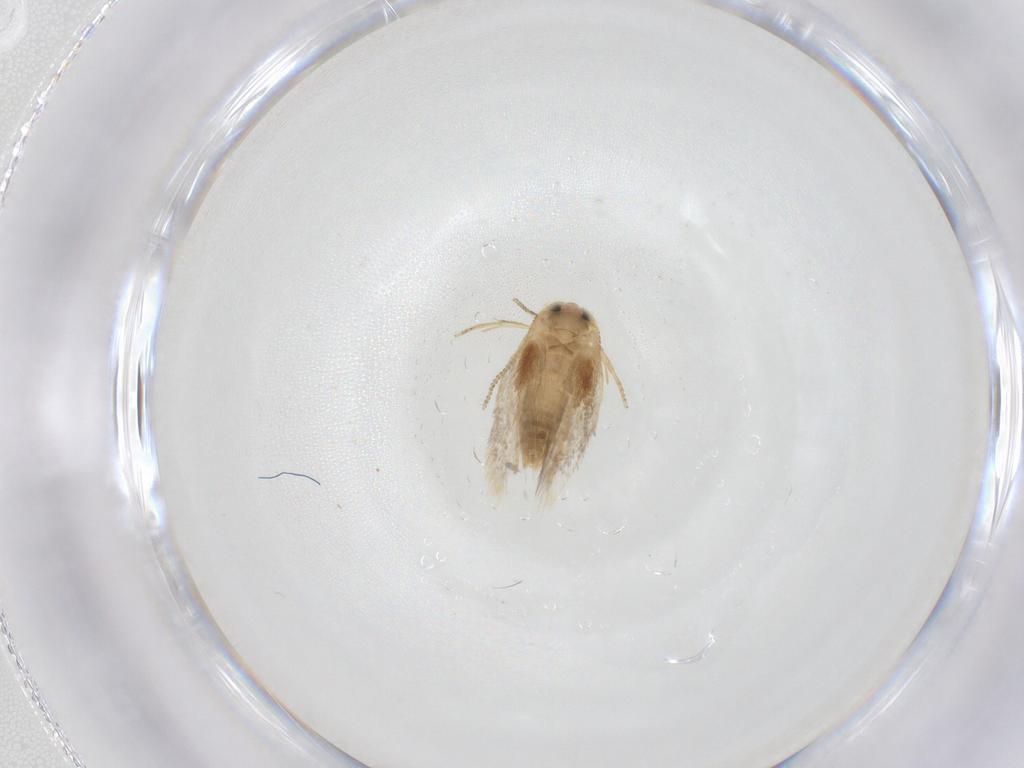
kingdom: Animalia
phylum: Arthropoda
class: Insecta
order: Lepidoptera
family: Nepticulidae
